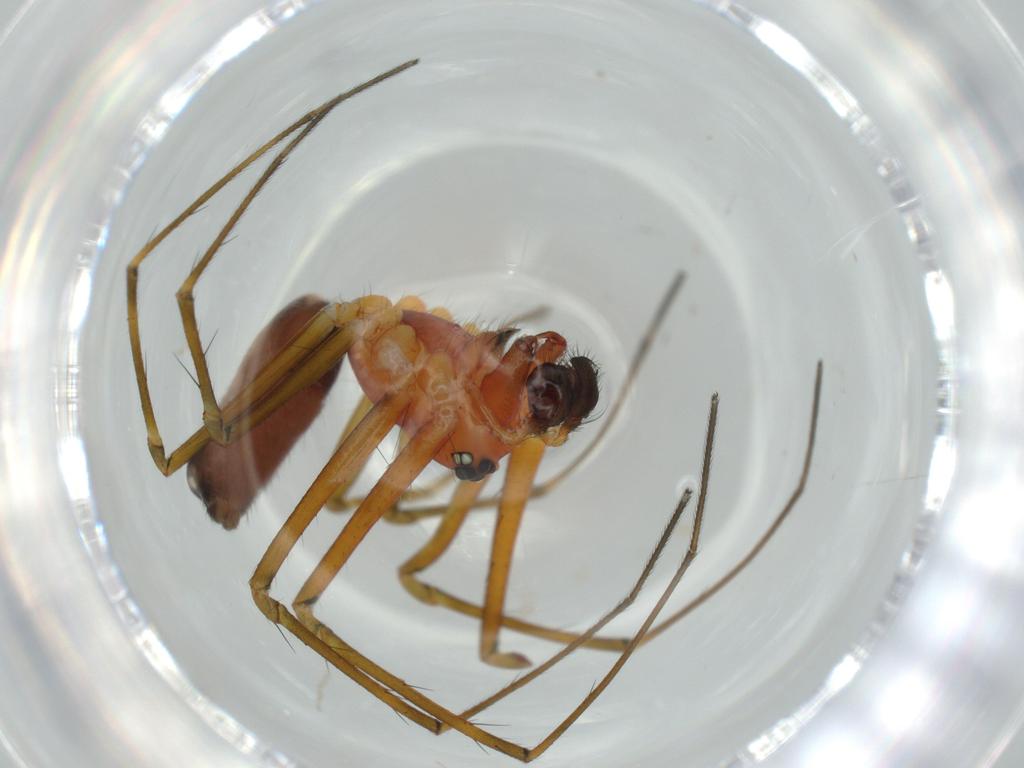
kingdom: Animalia
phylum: Arthropoda
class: Arachnida
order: Araneae
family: Linyphiidae
